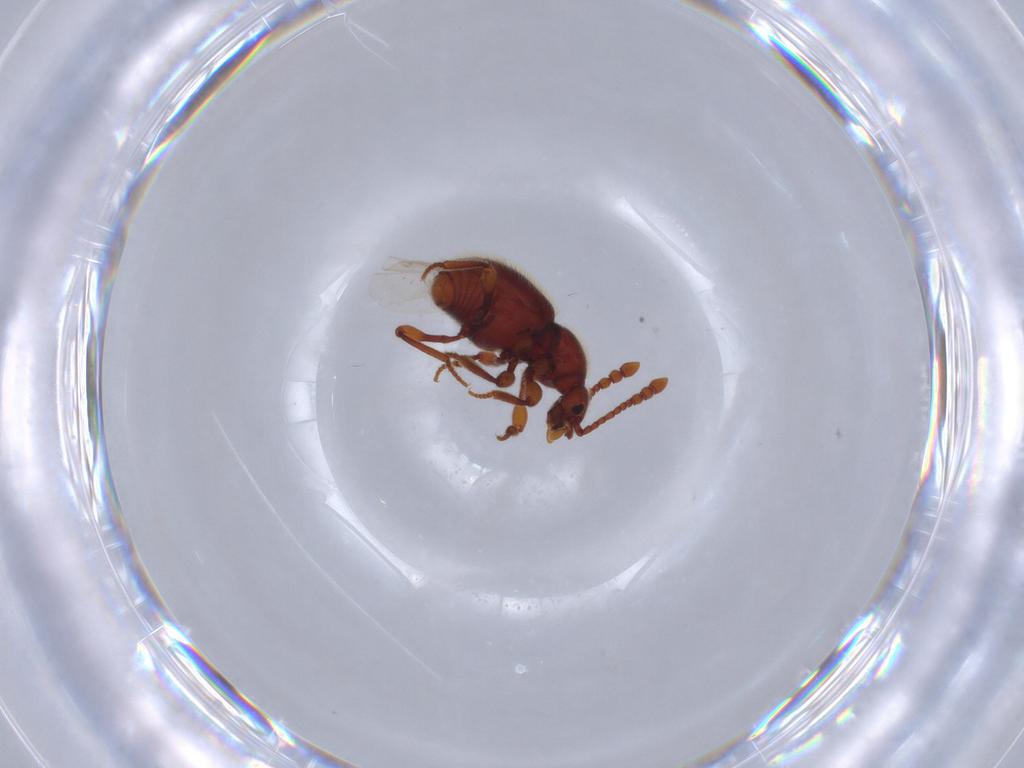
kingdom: Animalia
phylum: Arthropoda
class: Insecta
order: Coleoptera
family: Staphylinidae
